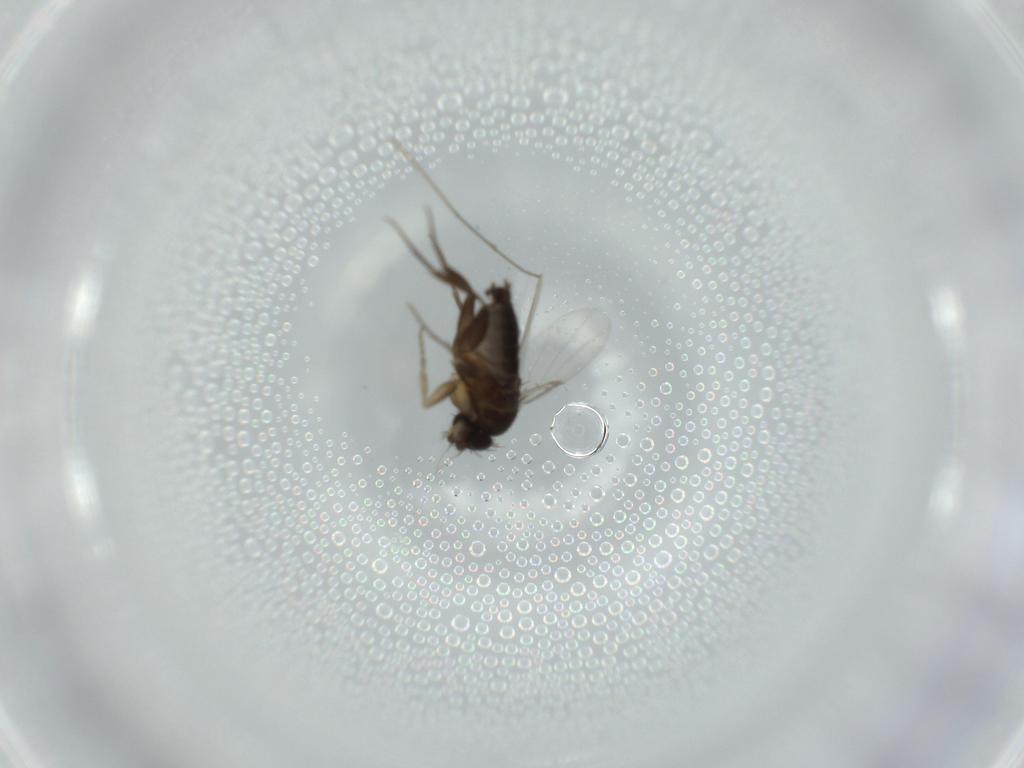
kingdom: Animalia
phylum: Arthropoda
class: Insecta
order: Diptera
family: Phoridae
